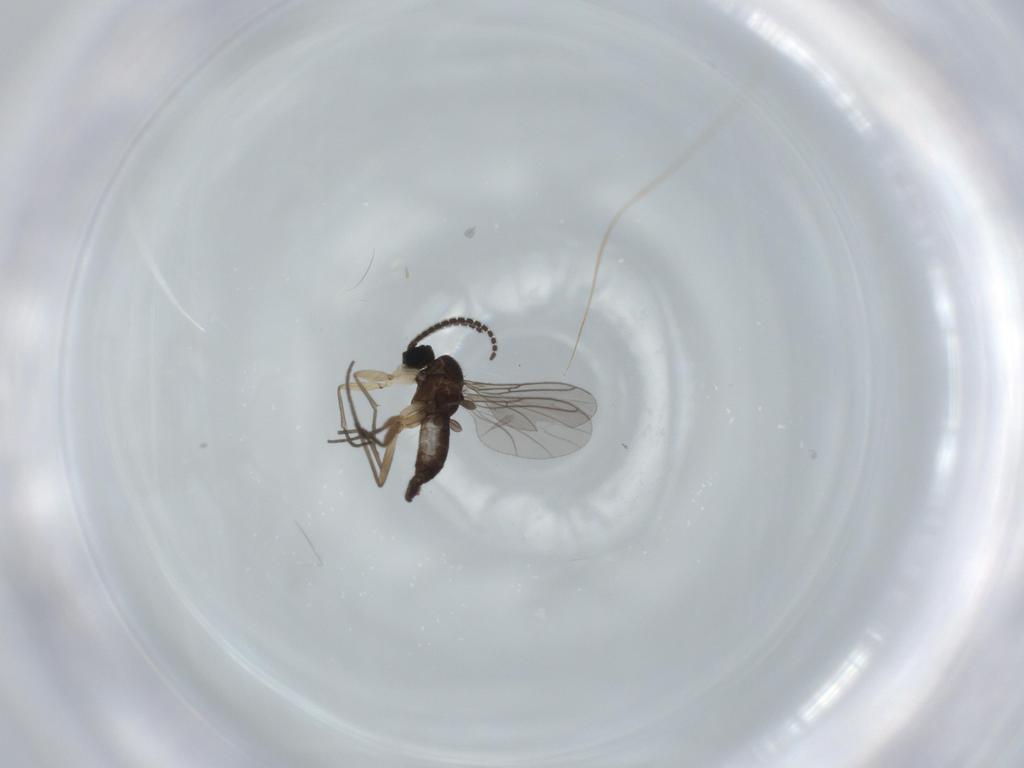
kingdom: Animalia
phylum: Arthropoda
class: Insecta
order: Diptera
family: Sciaridae
